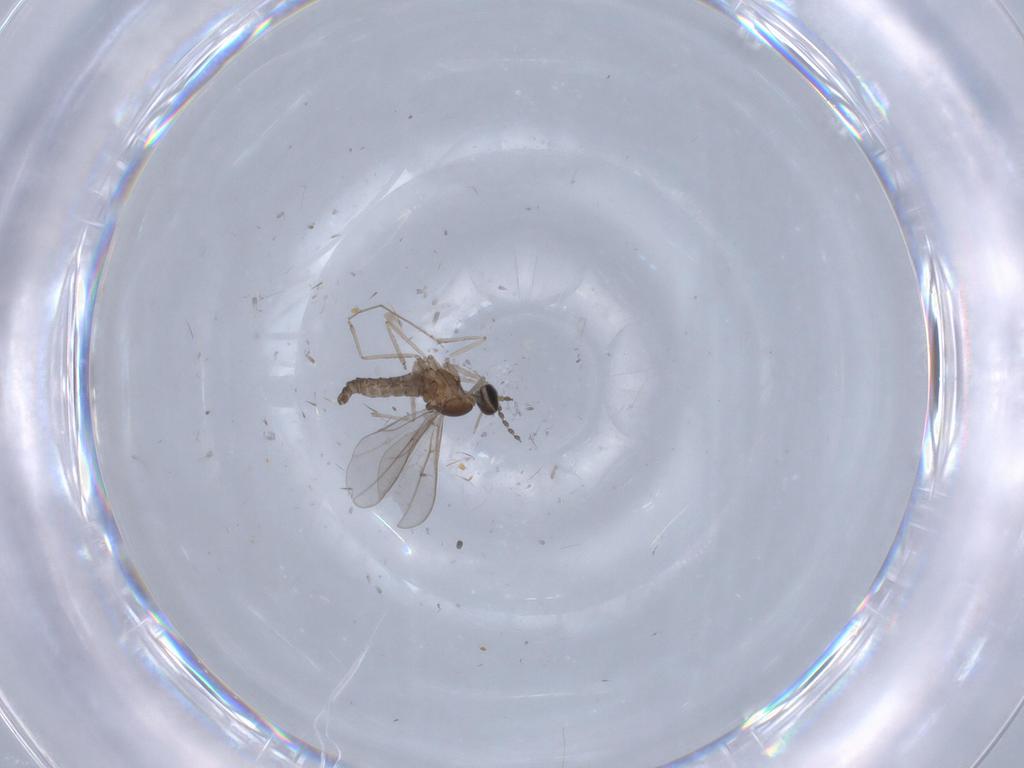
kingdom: Animalia
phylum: Arthropoda
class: Insecta
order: Diptera
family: Cecidomyiidae
